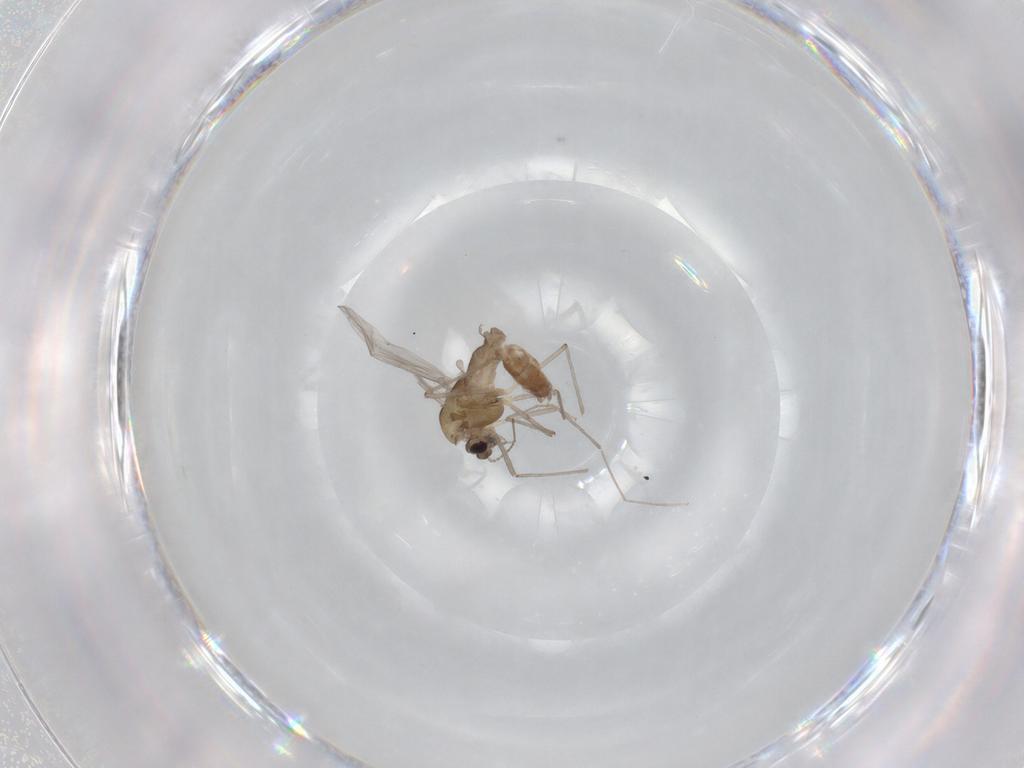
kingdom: Animalia
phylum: Arthropoda
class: Insecta
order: Diptera
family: Chironomidae
